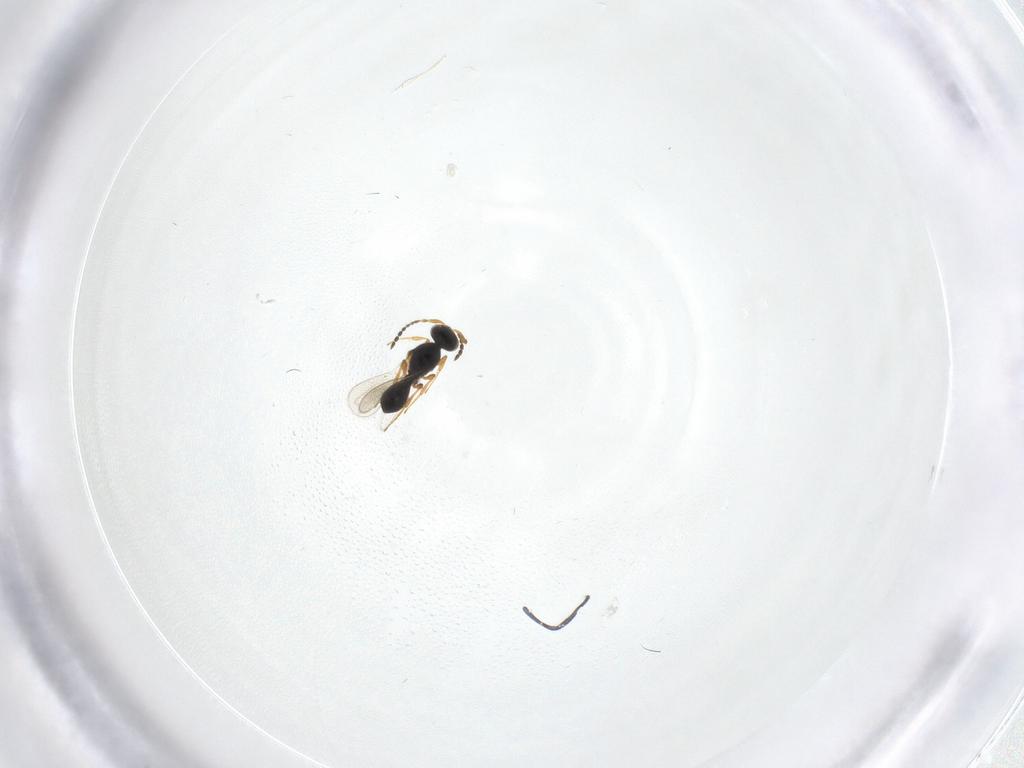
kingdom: Animalia
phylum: Arthropoda
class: Insecta
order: Hymenoptera
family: Platygastridae
